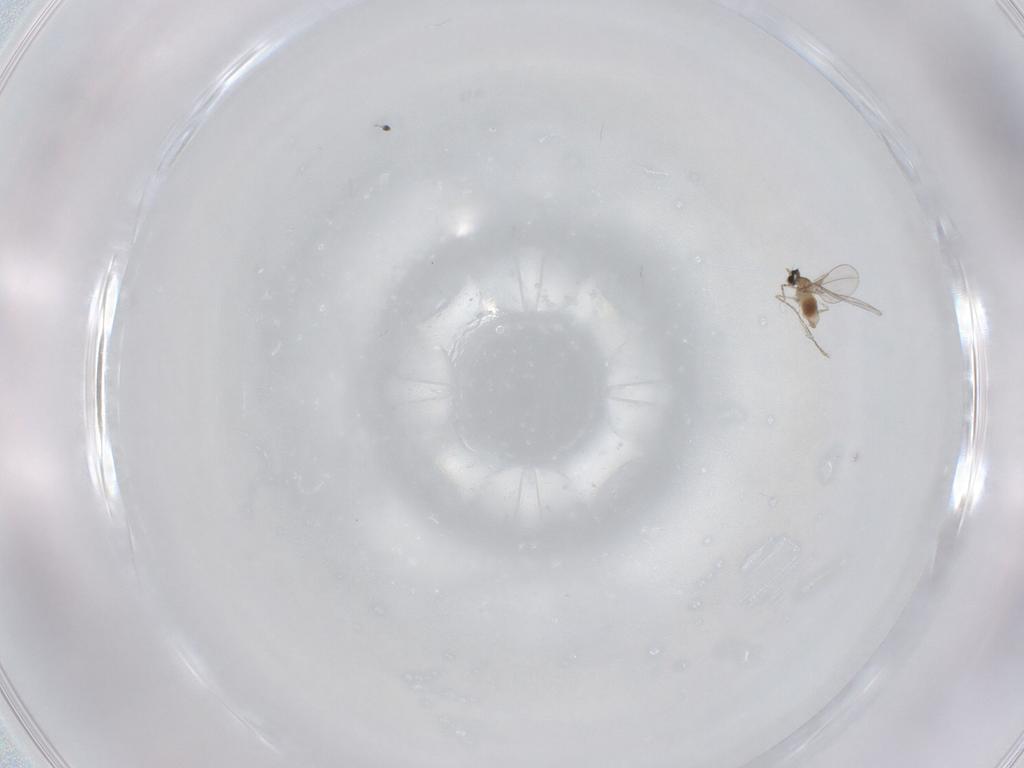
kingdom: Animalia
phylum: Arthropoda
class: Insecta
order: Diptera
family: Cecidomyiidae
